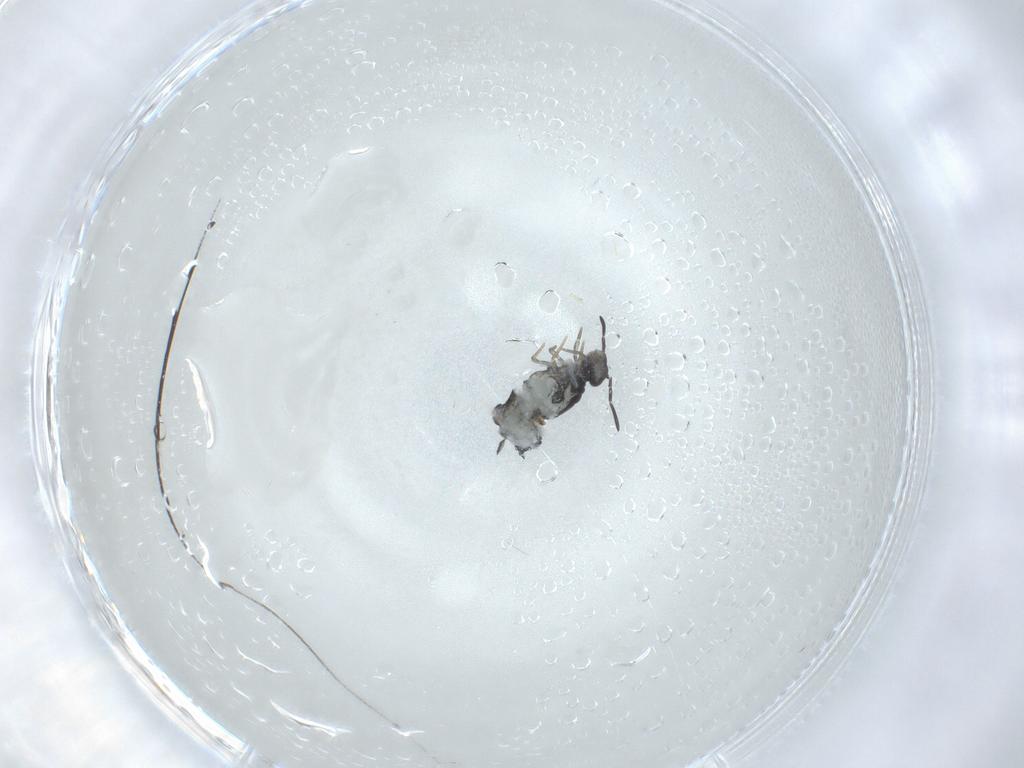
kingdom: Animalia
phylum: Arthropoda
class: Collembola
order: Symphypleona
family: Katiannidae
